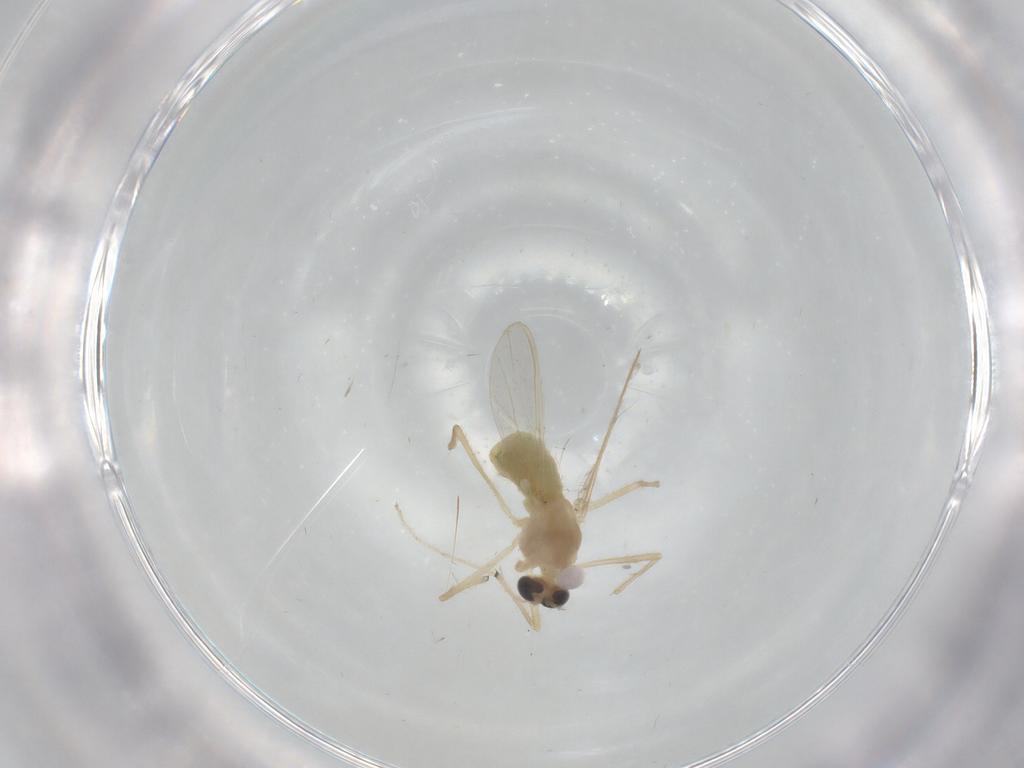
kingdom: Animalia
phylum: Arthropoda
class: Insecta
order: Diptera
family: Chironomidae
